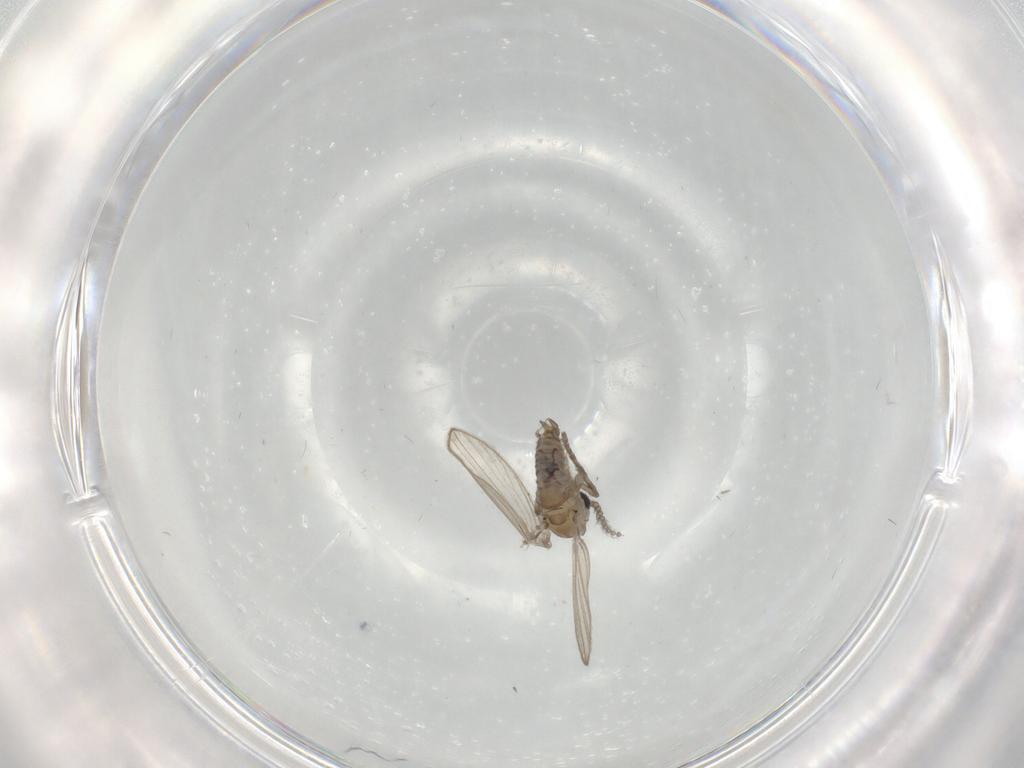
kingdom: Animalia
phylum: Arthropoda
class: Insecta
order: Diptera
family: Psychodidae
